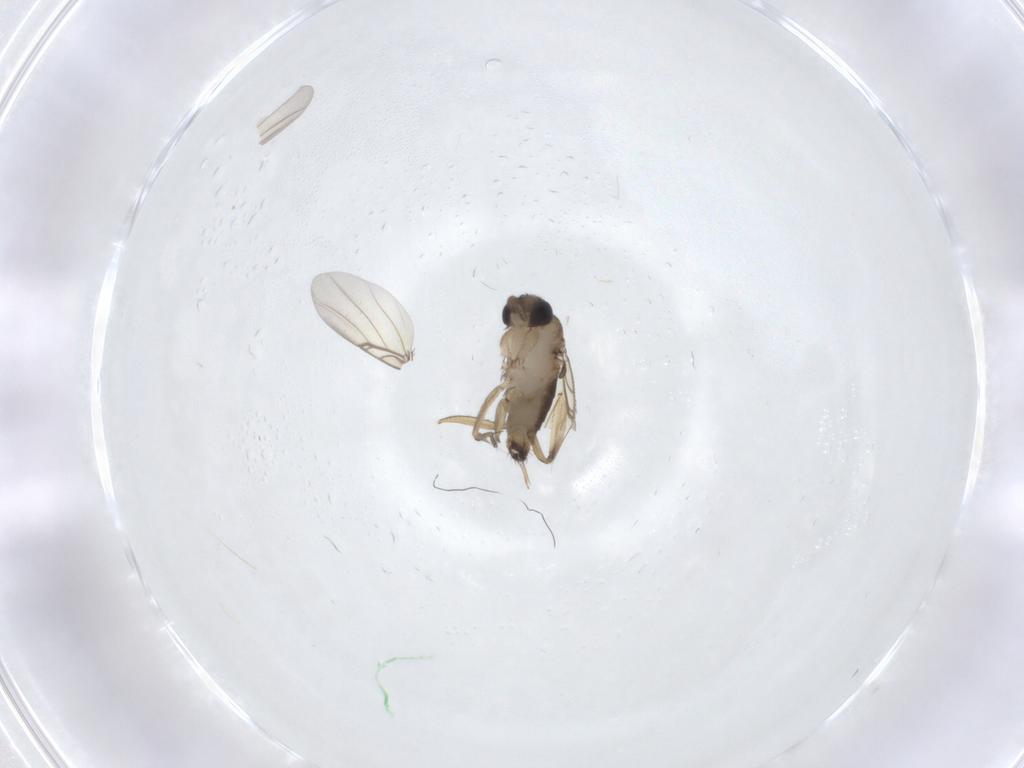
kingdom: Animalia
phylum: Arthropoda
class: Insecta
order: Diptera
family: Phoridae
